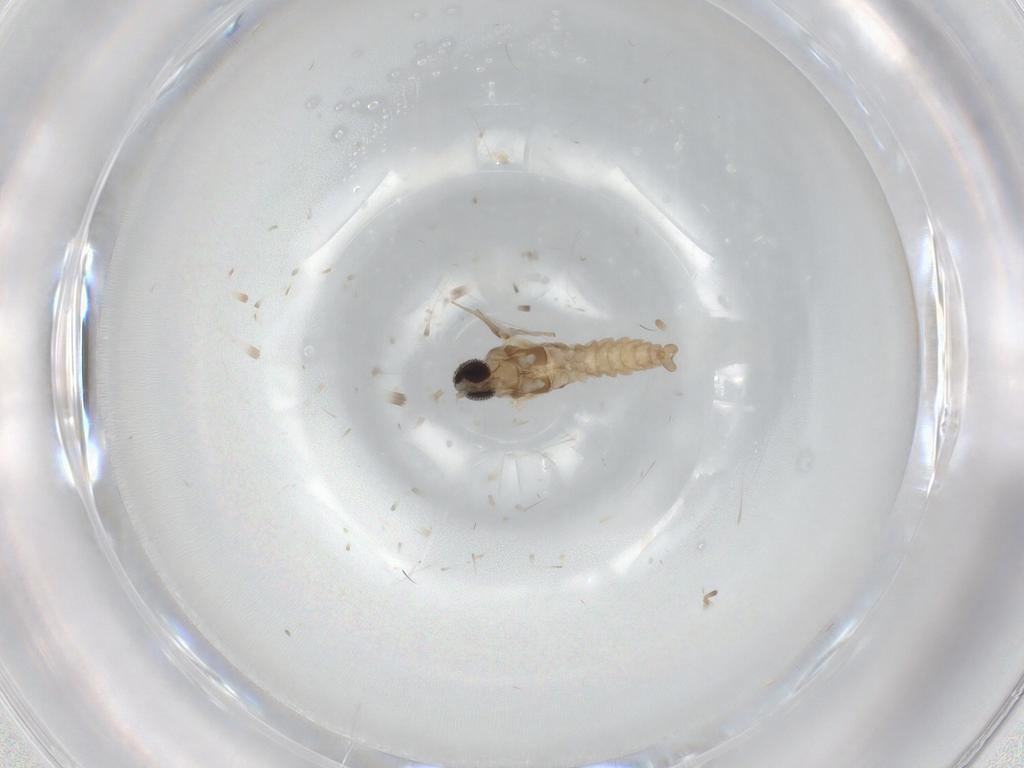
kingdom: Animalia
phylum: Arthropoda
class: Insecta
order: Diptera
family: Cecidomyiidae
